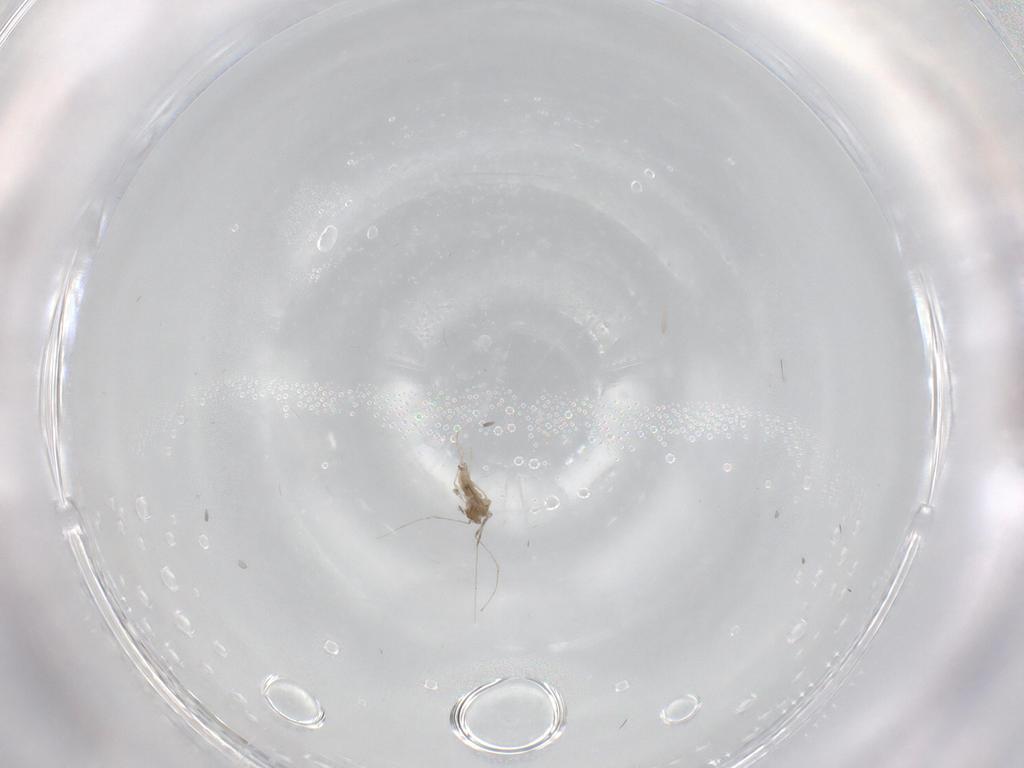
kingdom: Animalia
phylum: Arthropoda
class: Insecta
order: Diptera
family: Cecidomyiidae
